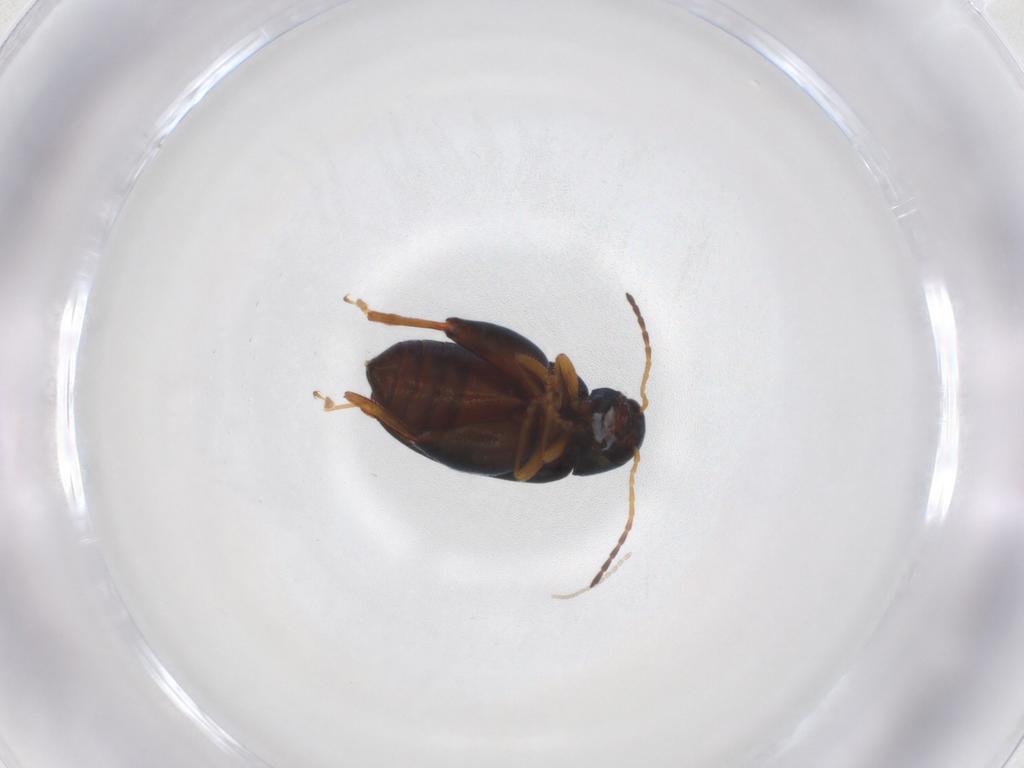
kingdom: Animalia
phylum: Arthropoda
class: Insecta
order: Coleoptera
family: Chrysomelidae
